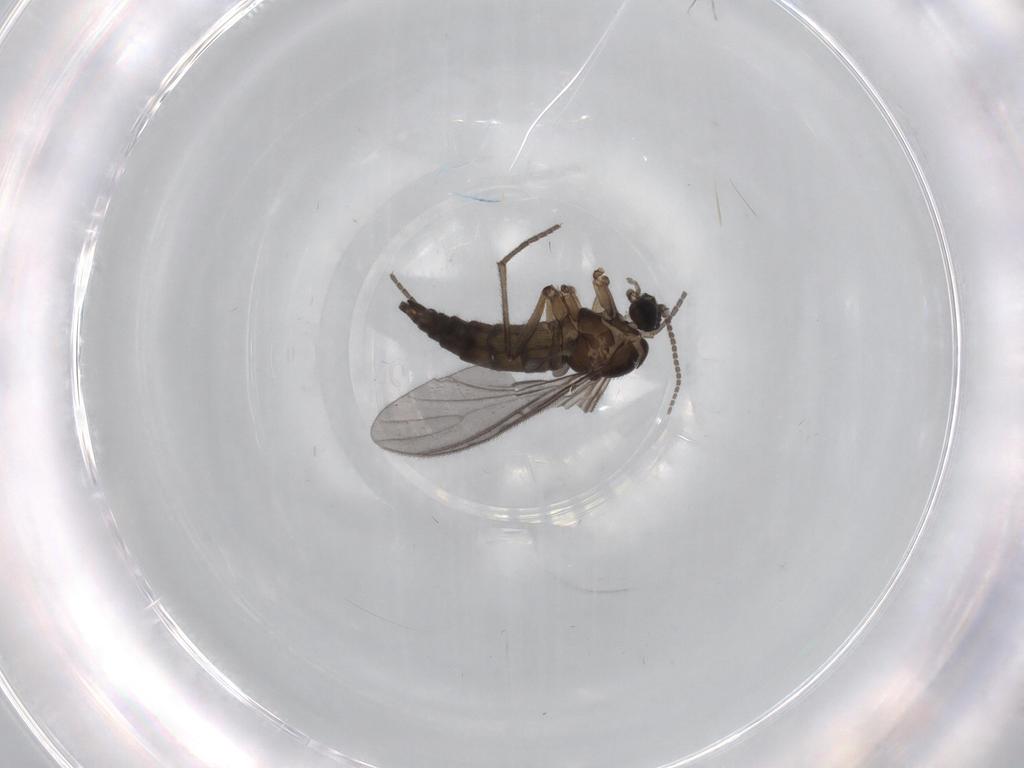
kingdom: Animalia
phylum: Arthropoda
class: Insecta
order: Diptera
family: Sciaridae
